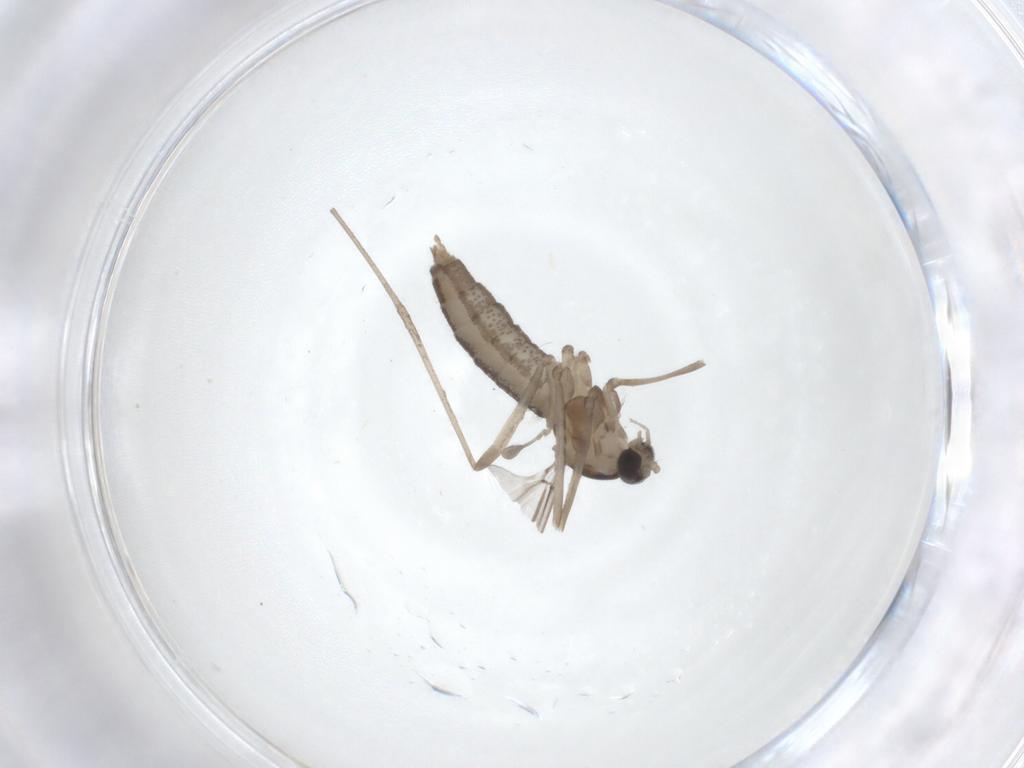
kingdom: Animalia
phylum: Arthropoda
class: Insecta
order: Diptera
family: Cecidomyiidae
